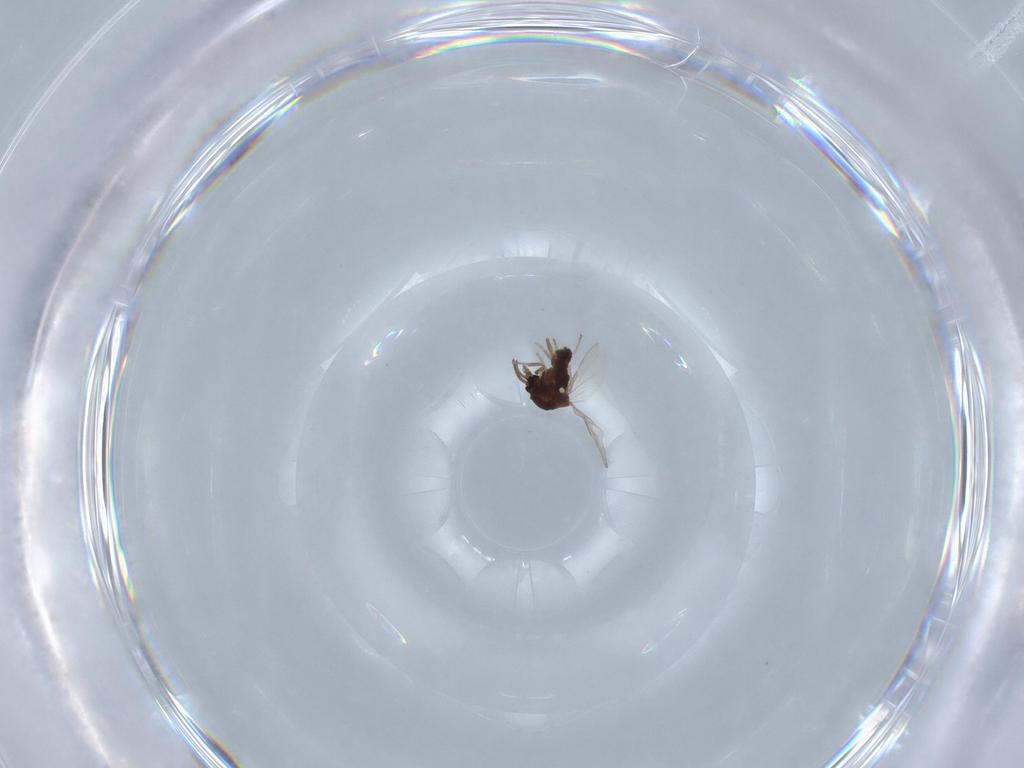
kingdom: Animalia
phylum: Arthropoda
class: Insecta
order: Diptera
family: Ceratopogonidae
